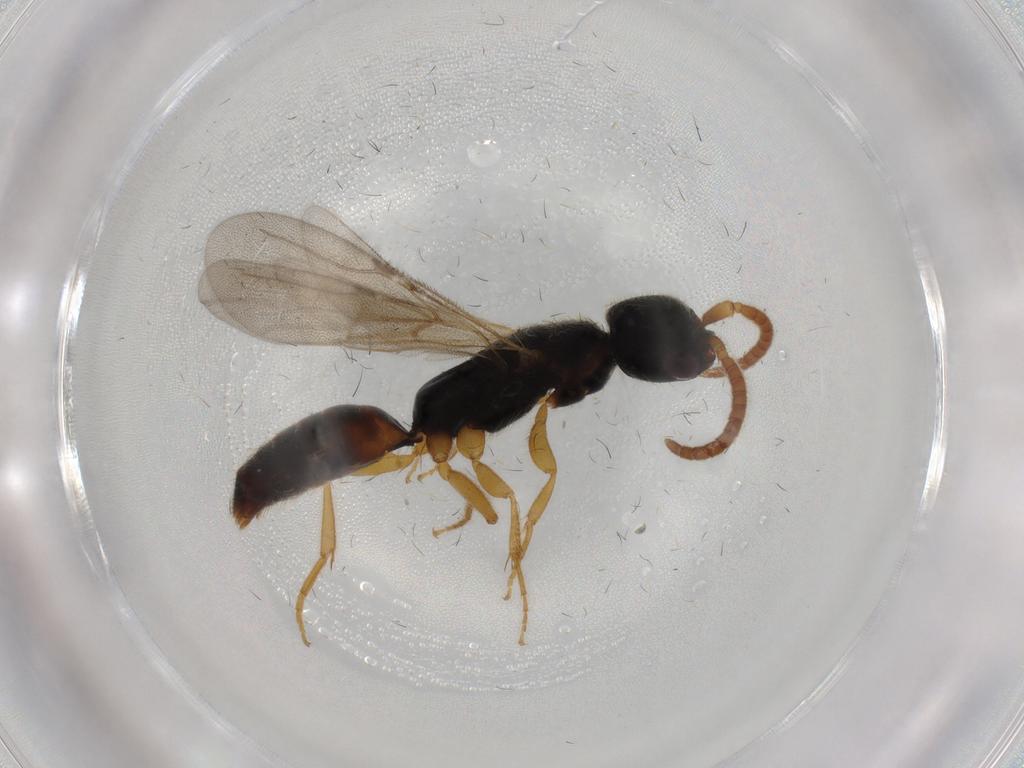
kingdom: Animalia
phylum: Arthropoda
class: Insecta
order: Hymenoptera
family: Bethylidae
